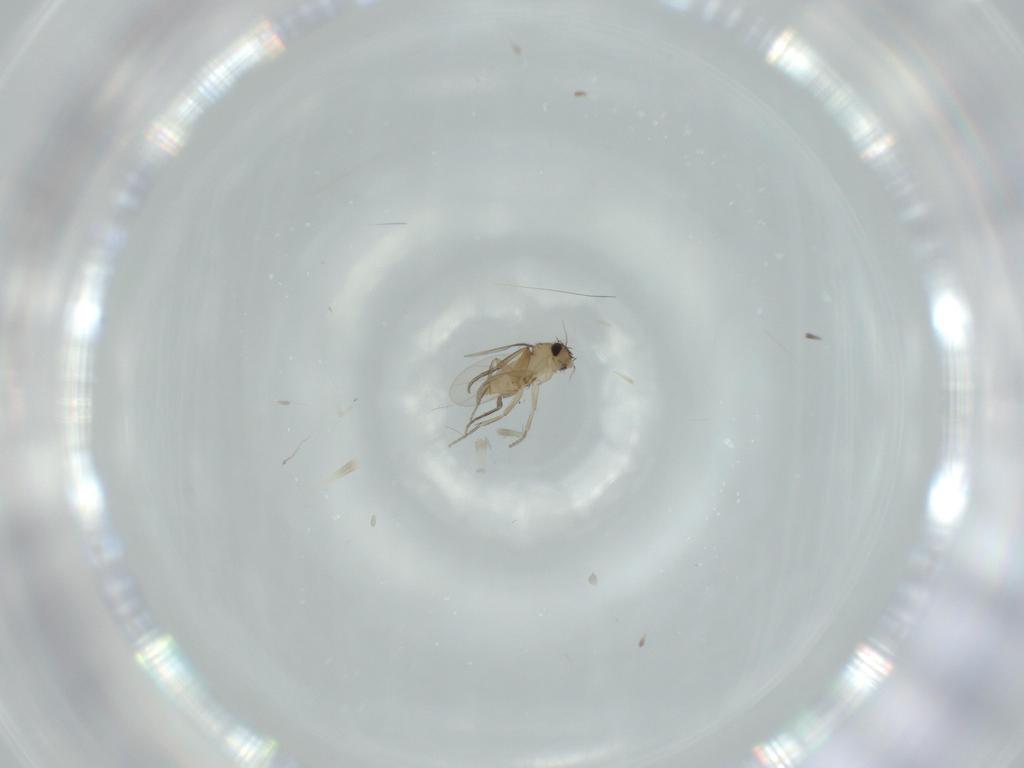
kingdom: Animalia
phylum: Arthropoda
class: Insecta
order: Diptera
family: Phoridae
